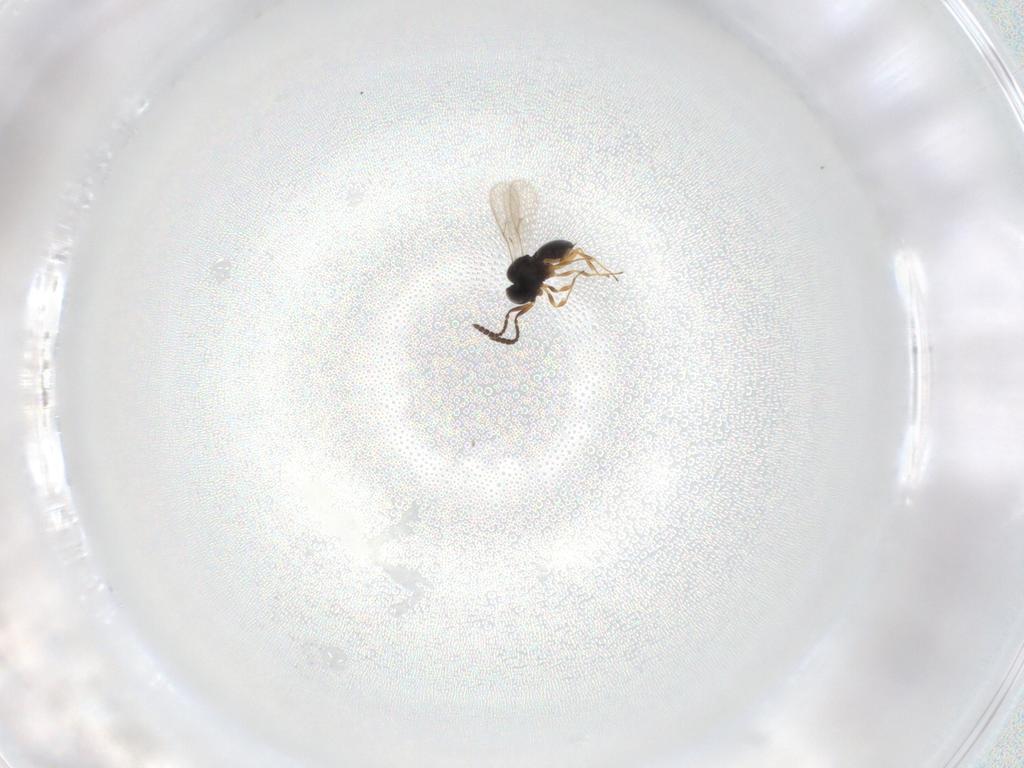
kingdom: Animalia
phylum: Arthropoda
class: Insecta
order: Hymenoptera
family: Scelionidae
